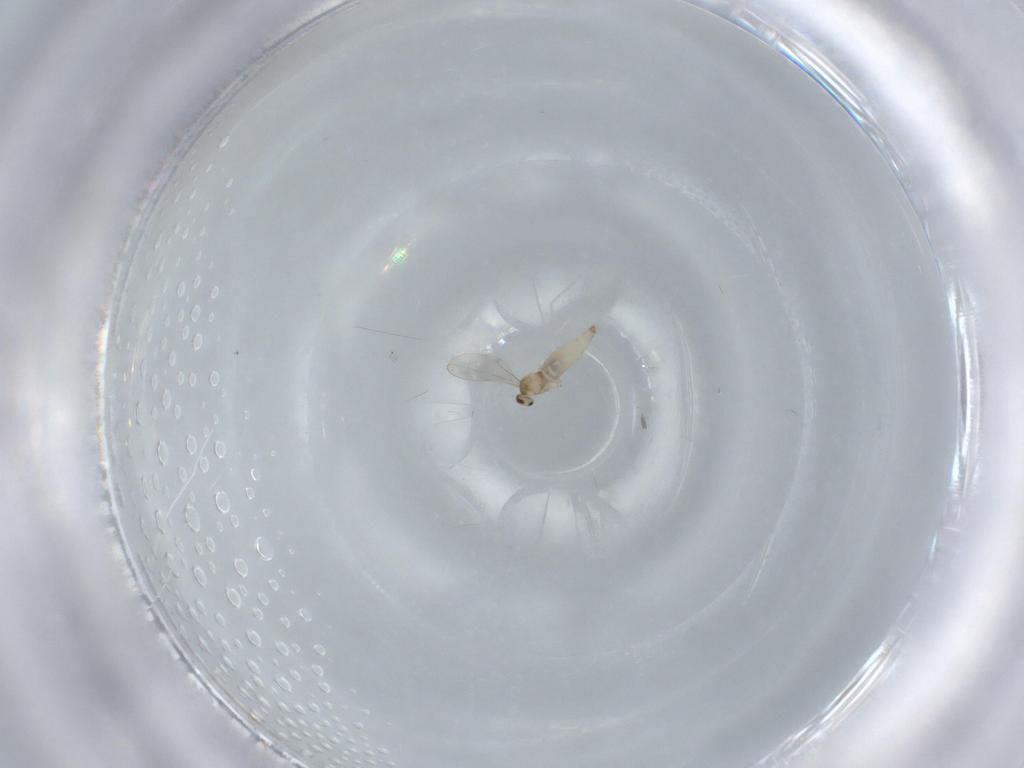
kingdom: Animalia
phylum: Arthropoda
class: Insecta
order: Diptera
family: Cecidomyiidae
